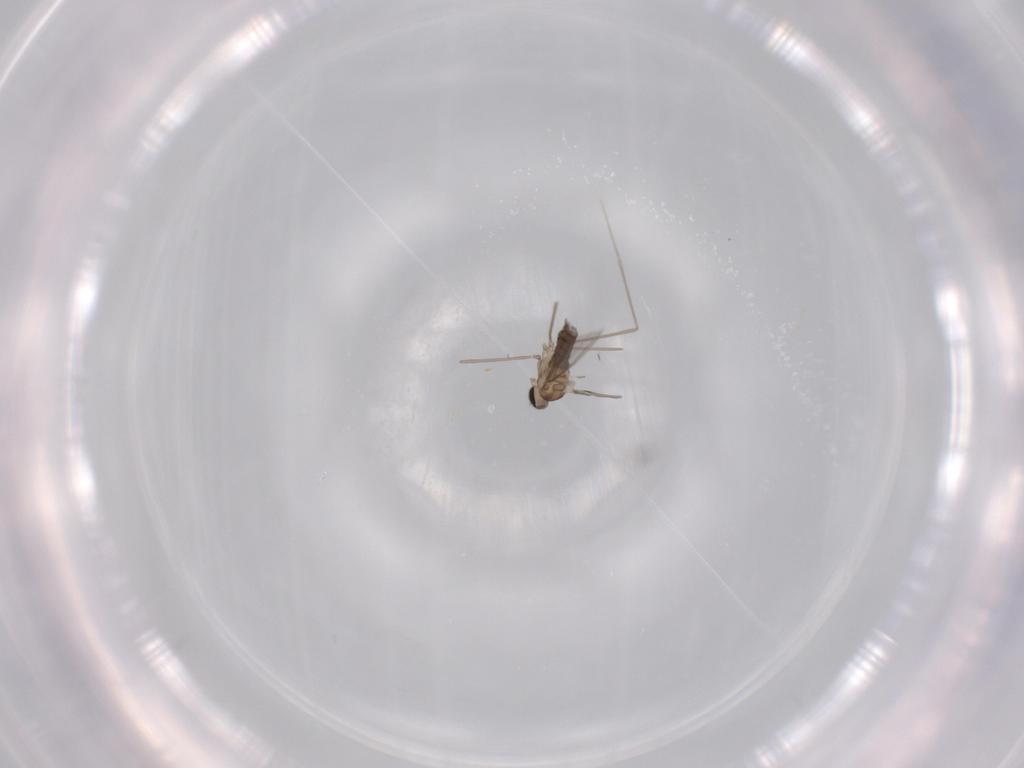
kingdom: Animalia
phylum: Arthropoda
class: Insecta
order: Diptera
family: Cecidomyiidae
